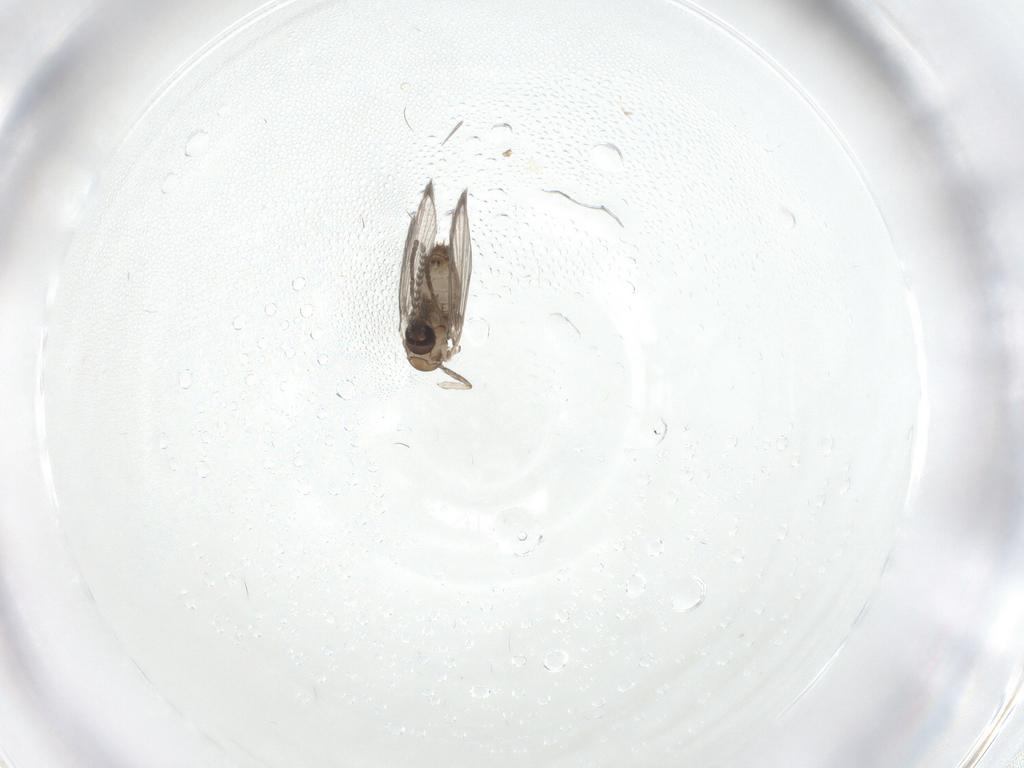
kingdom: Animalia
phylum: Arthropoda
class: Insecta
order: Diptera
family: Psychodidae
